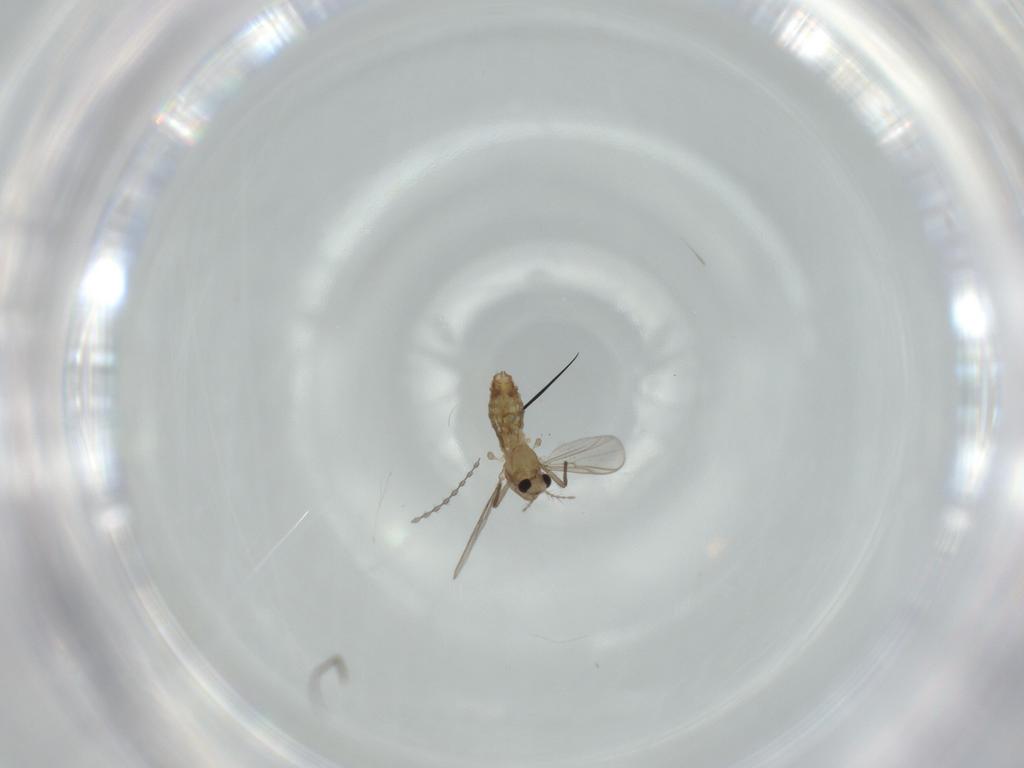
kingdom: Animalia
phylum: Arthropoda
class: Insecta
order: Diptera
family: Chironomidae
